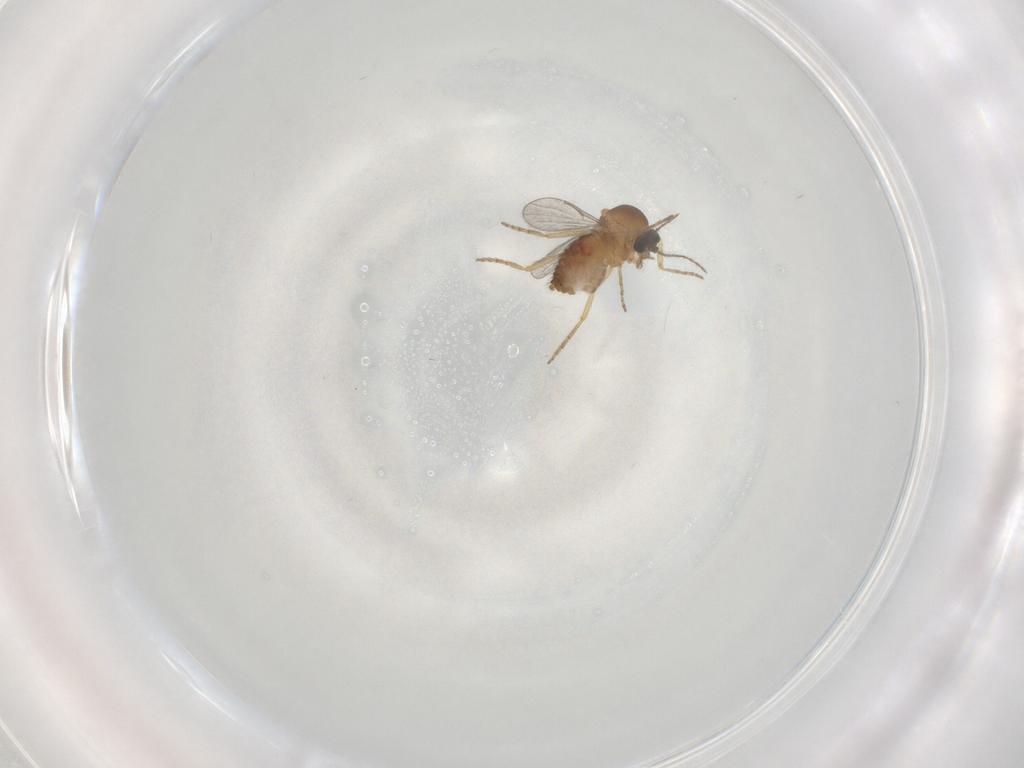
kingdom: Animalia
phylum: Arthropoda
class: Insecta
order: Diptera
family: Ceratopogonidae
